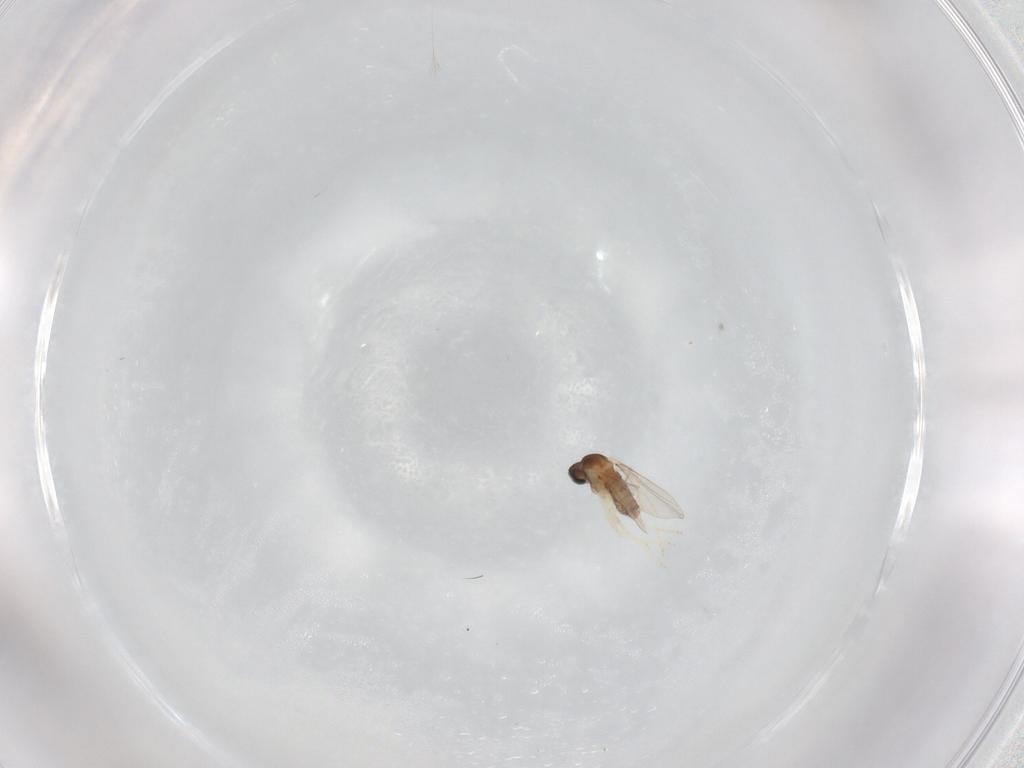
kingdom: Animalia
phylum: Arthropoda
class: Insecta
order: Diptera
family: Cecidomyiidae
